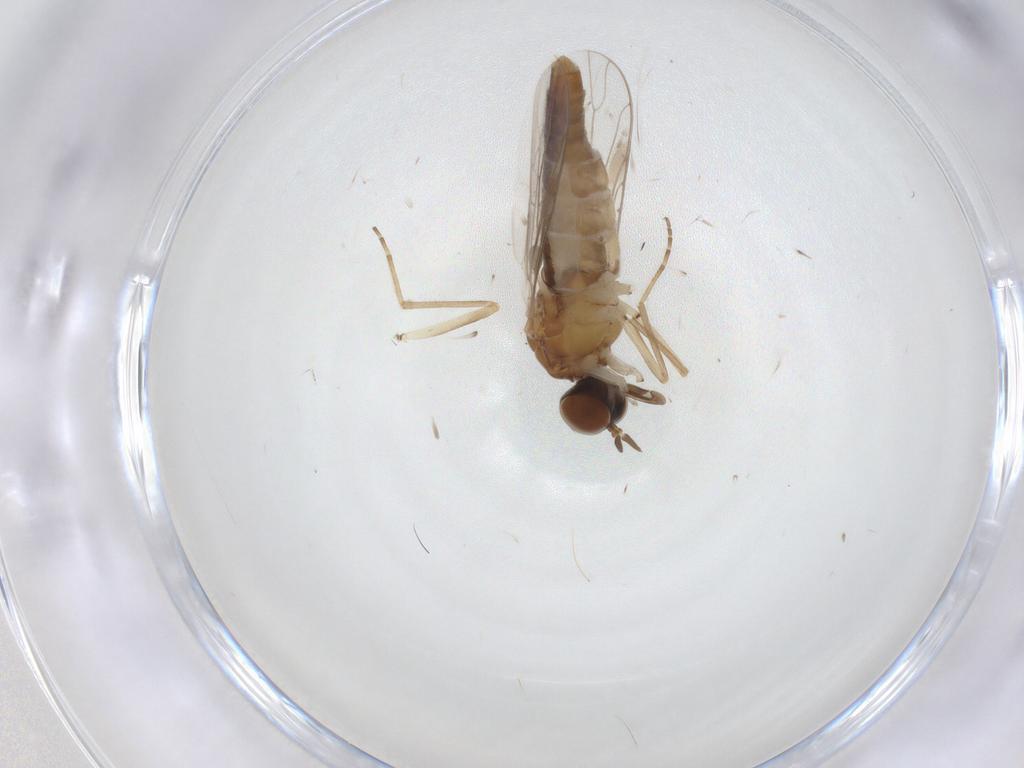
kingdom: Animalia
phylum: Arthropoda
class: Insecta
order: Diptera
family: Scenopinidae
